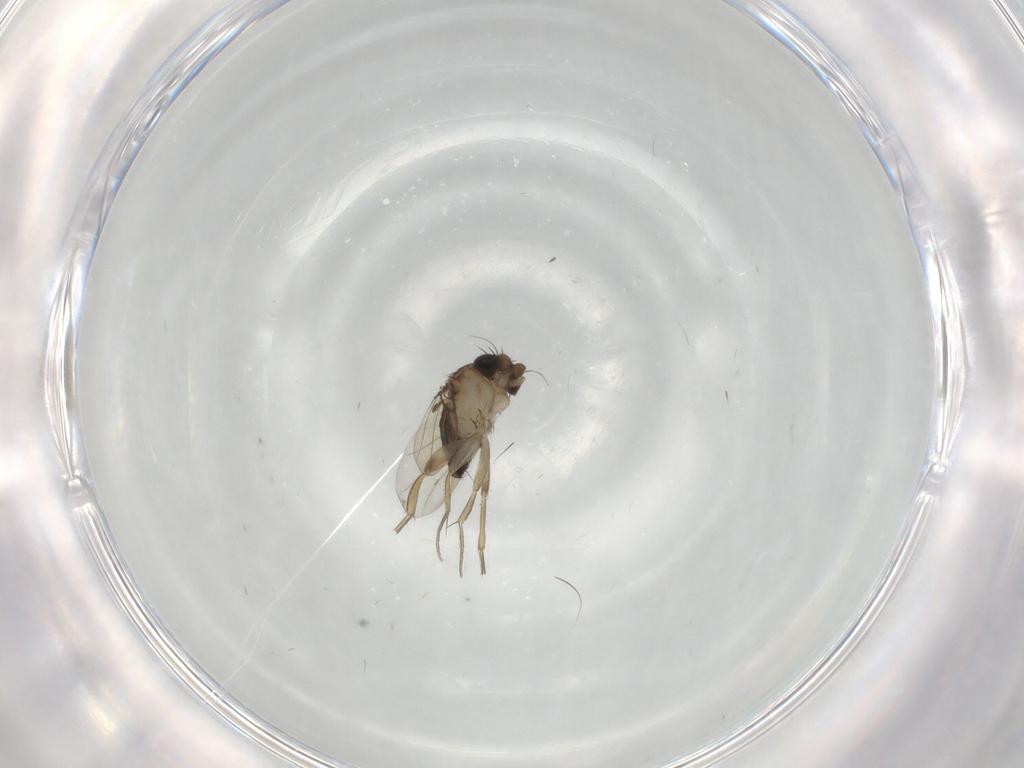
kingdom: Animalia
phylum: Arthropoda
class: Insecta
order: Diptera
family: Phoridae
